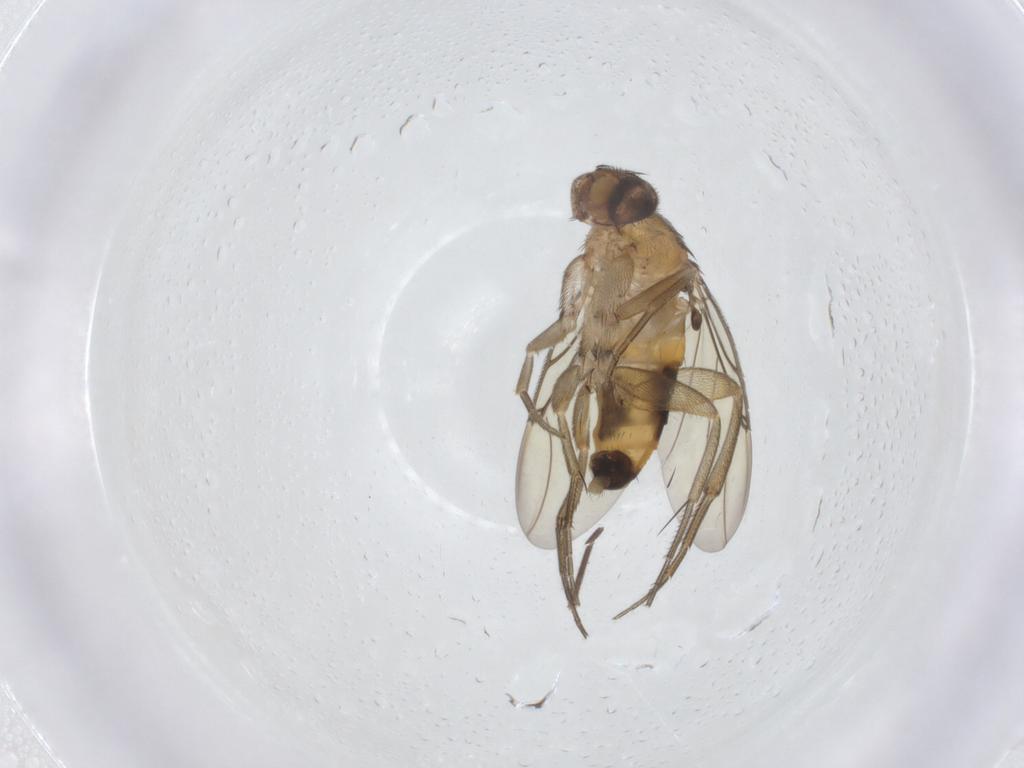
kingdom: Animalia
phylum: Arthropoda
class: Insecta
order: Diptera
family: Phoridae
